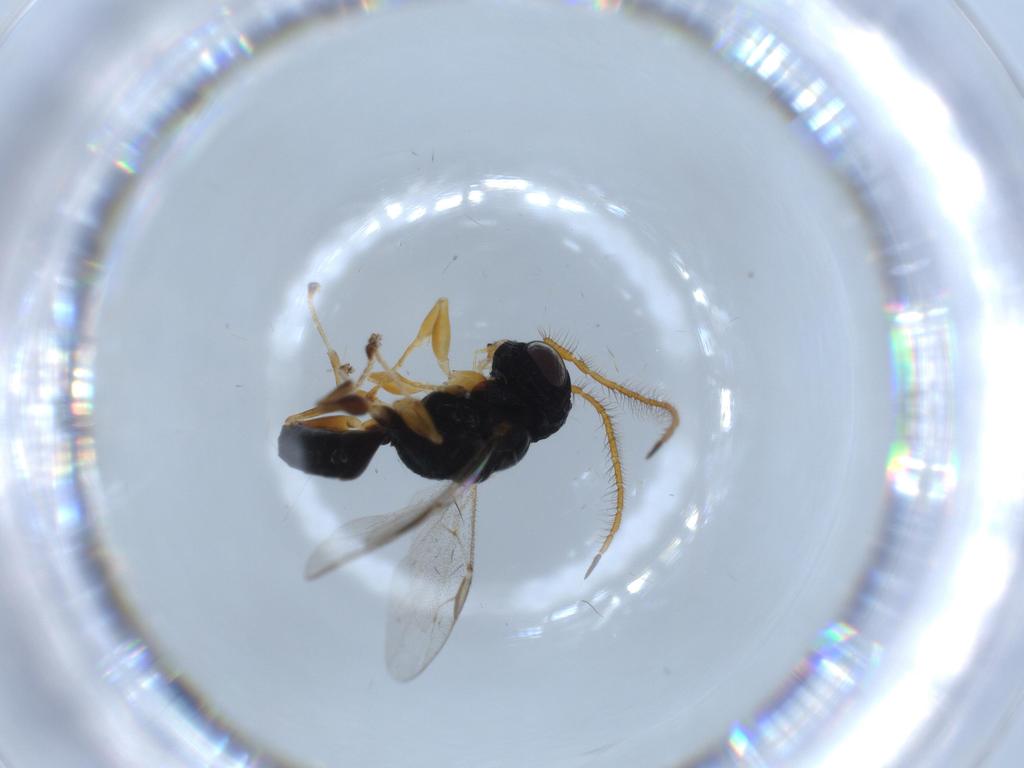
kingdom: Animalia
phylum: Arthropoda
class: Insecta
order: Hymenoptera
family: Dryinidae
